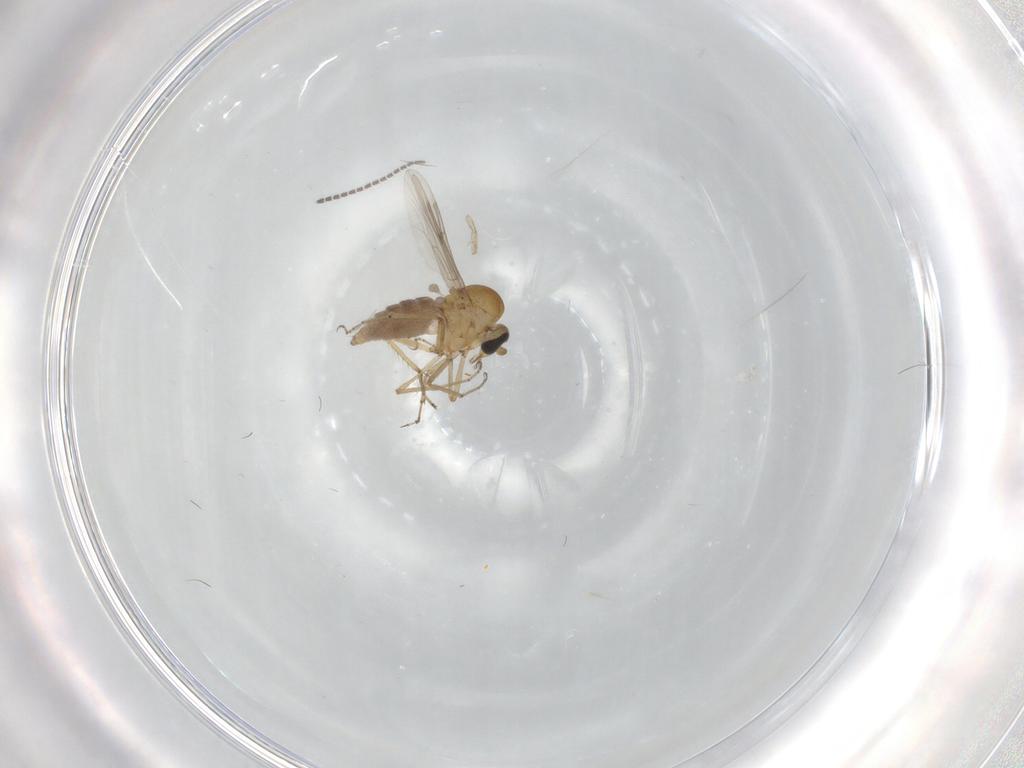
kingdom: Animalia
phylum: Arthropoda
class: Insecta
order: Diptera
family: Sciaridae
